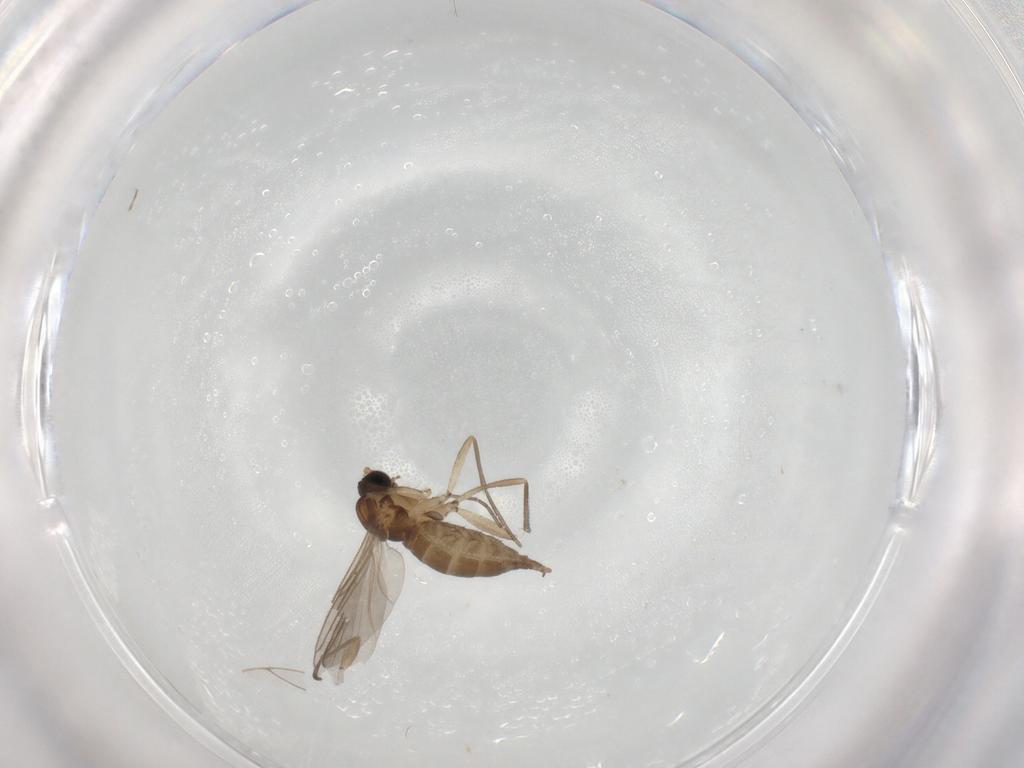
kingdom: Animalia
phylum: Arthropoda
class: Insecta
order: Diptera
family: Sciaridae
